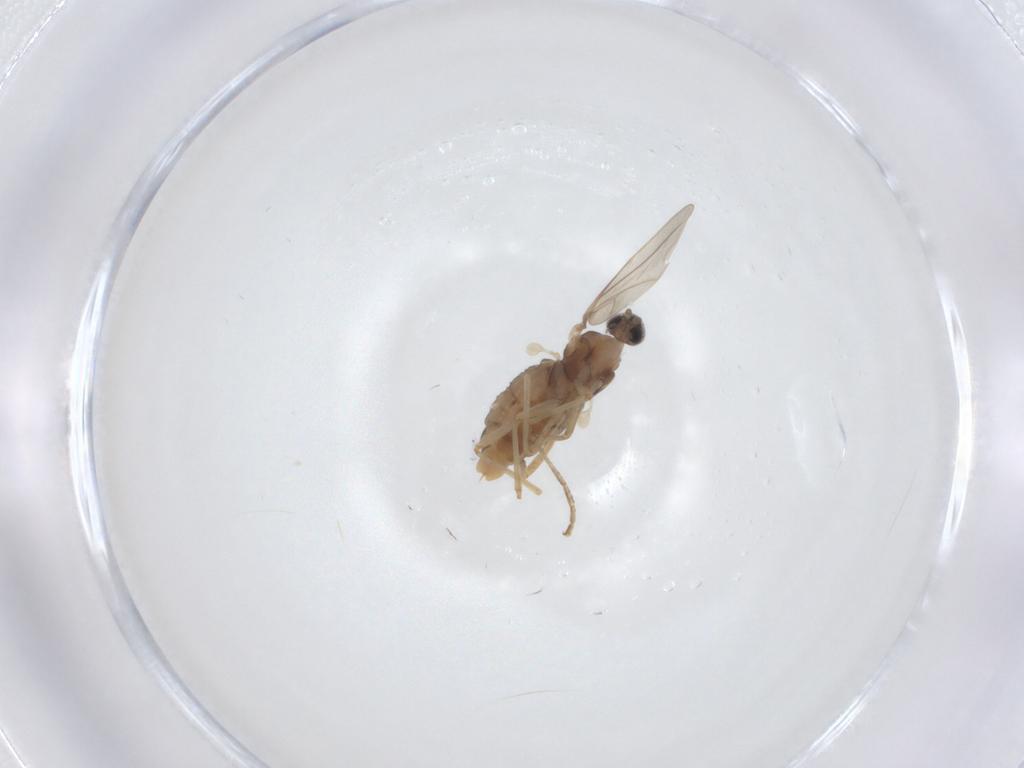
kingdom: Animalia
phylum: Arthropoda
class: Insecta
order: Diptera
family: Cecidomyiidae
